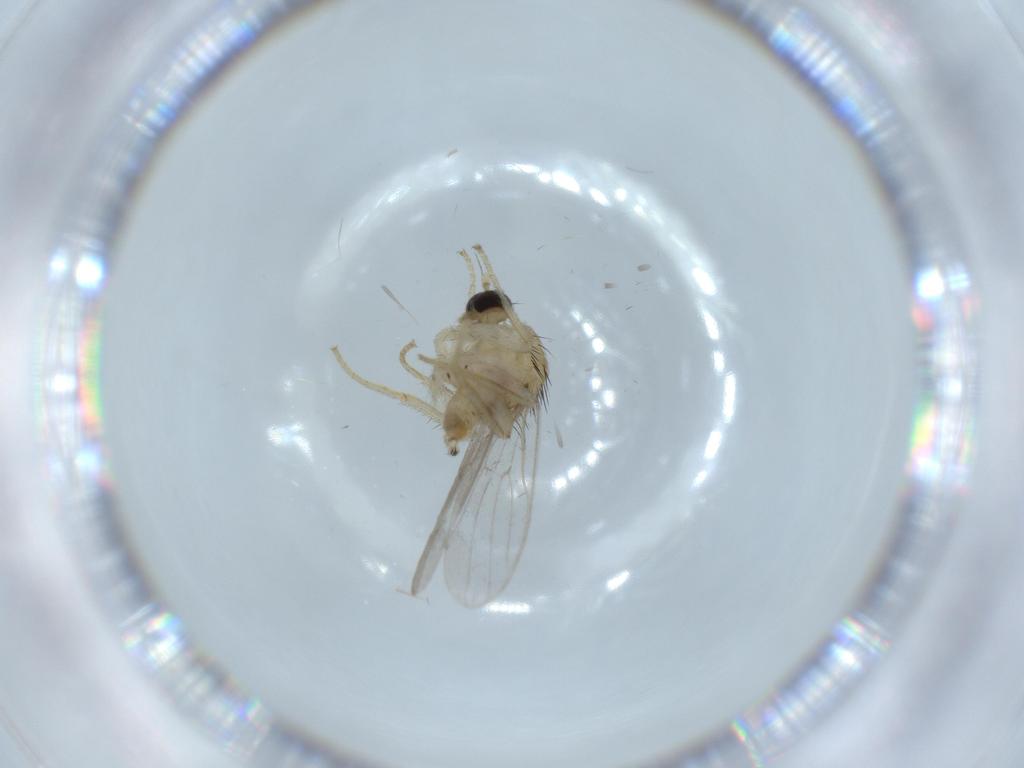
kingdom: Animalia
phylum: Arthropoda
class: Insecta
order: Diptera
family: Hybotidae
